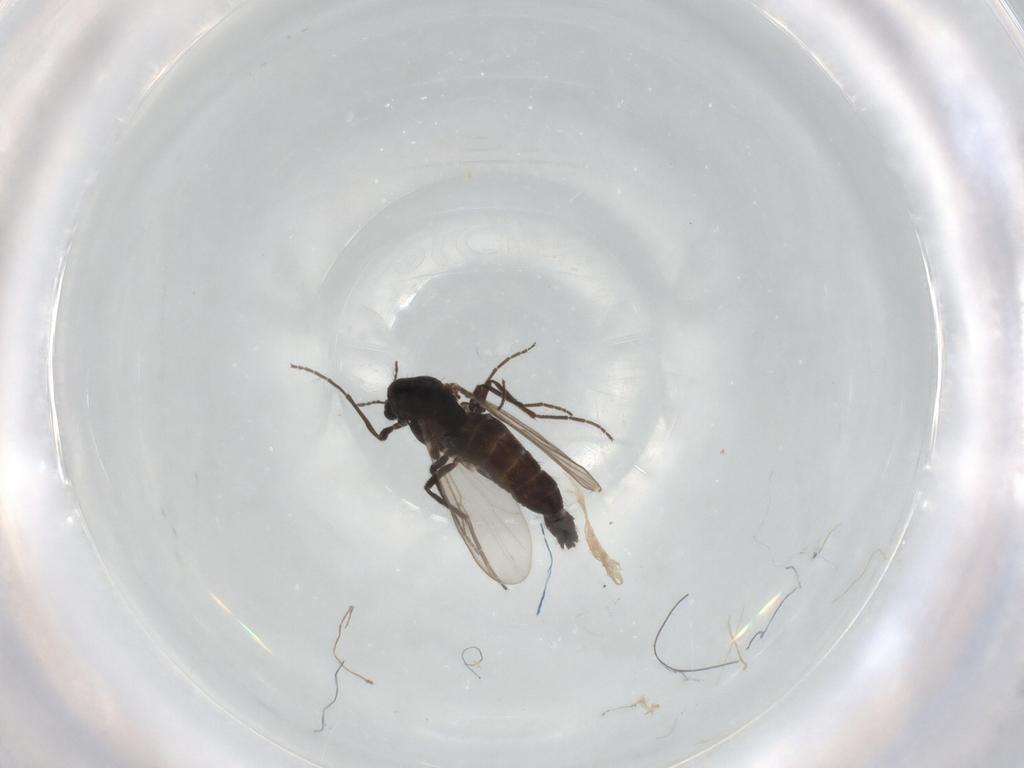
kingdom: Animalia
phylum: Arthropoda
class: Insecta
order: Diptera
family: Chironomidae
